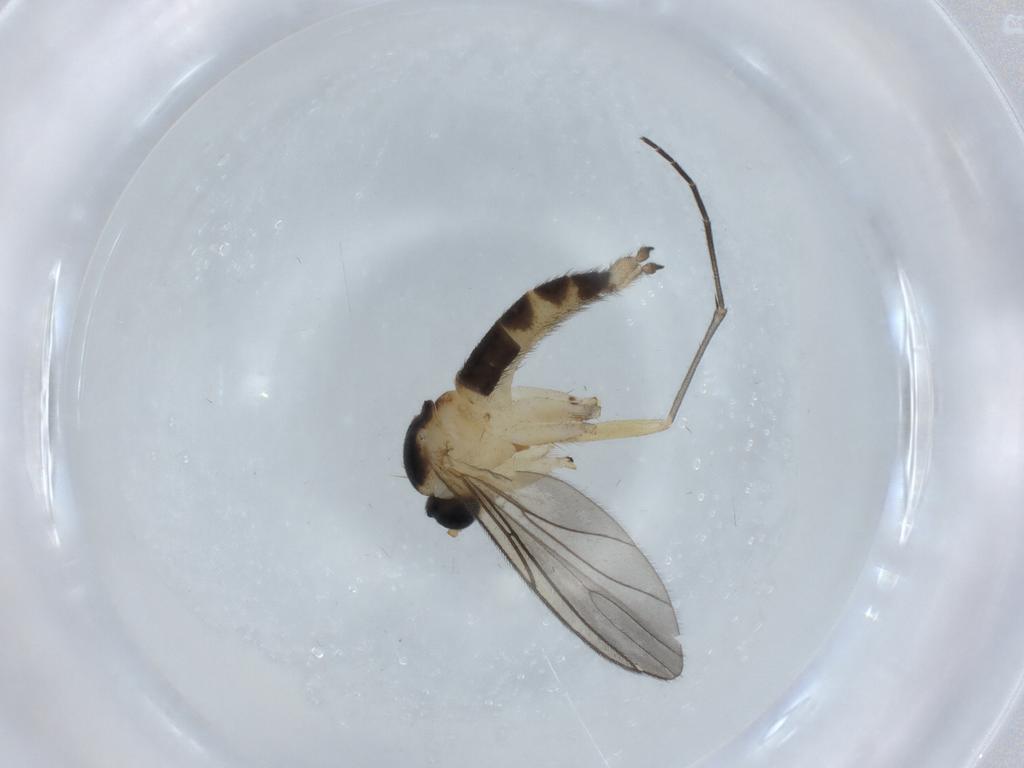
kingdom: Animalia
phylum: Arthropoda
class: Insecta
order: Diptera
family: Sciaridae
